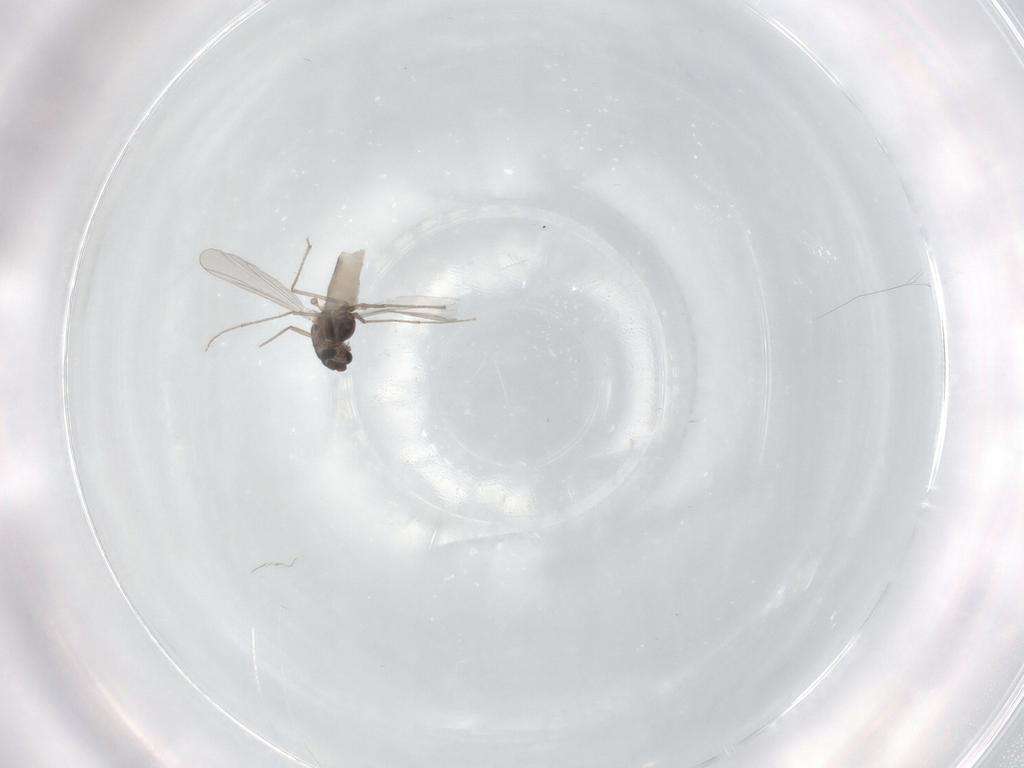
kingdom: Animalia
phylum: Arthropoda
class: Insecta
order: Diptera
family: Chironomidae
